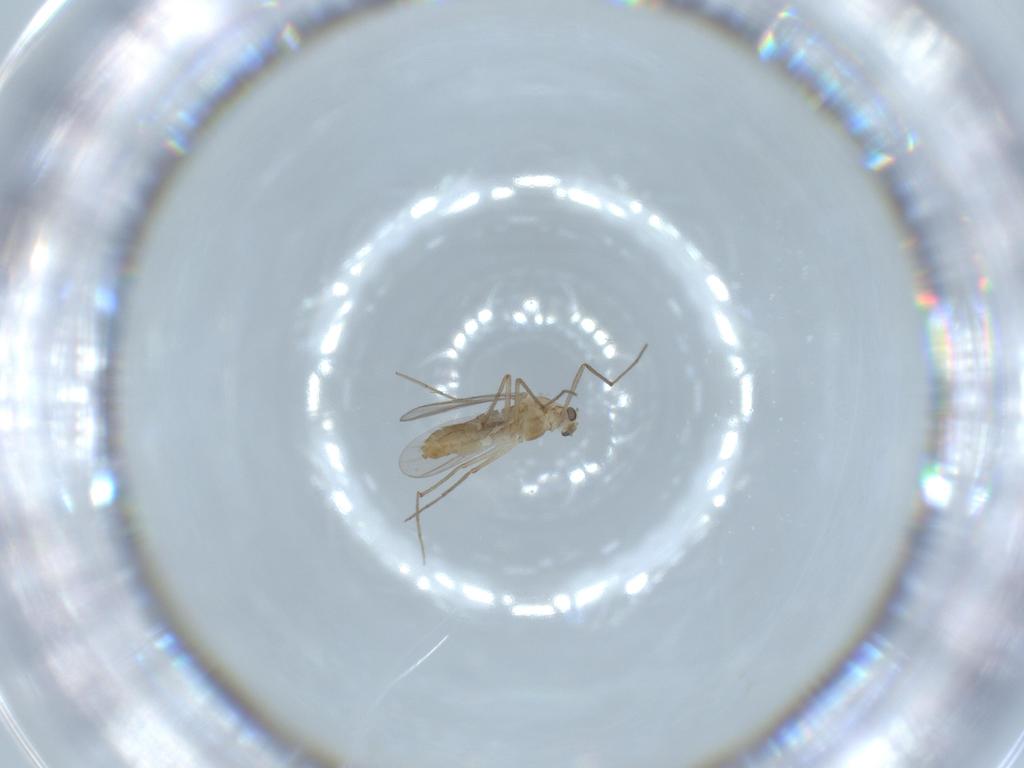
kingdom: Animalia
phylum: Arthropoda
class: Insecta
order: Diptera
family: Chironomidae
